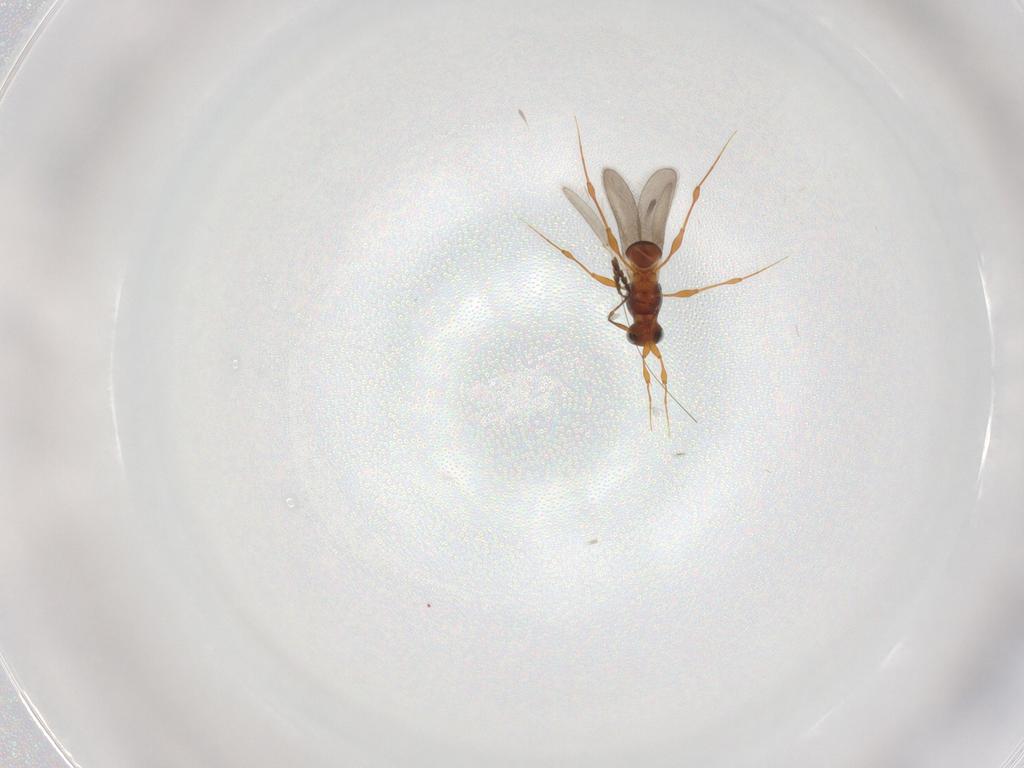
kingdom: Animalia
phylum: Arthropoda
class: Insecta
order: Hymenoptera
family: Platygastridae
